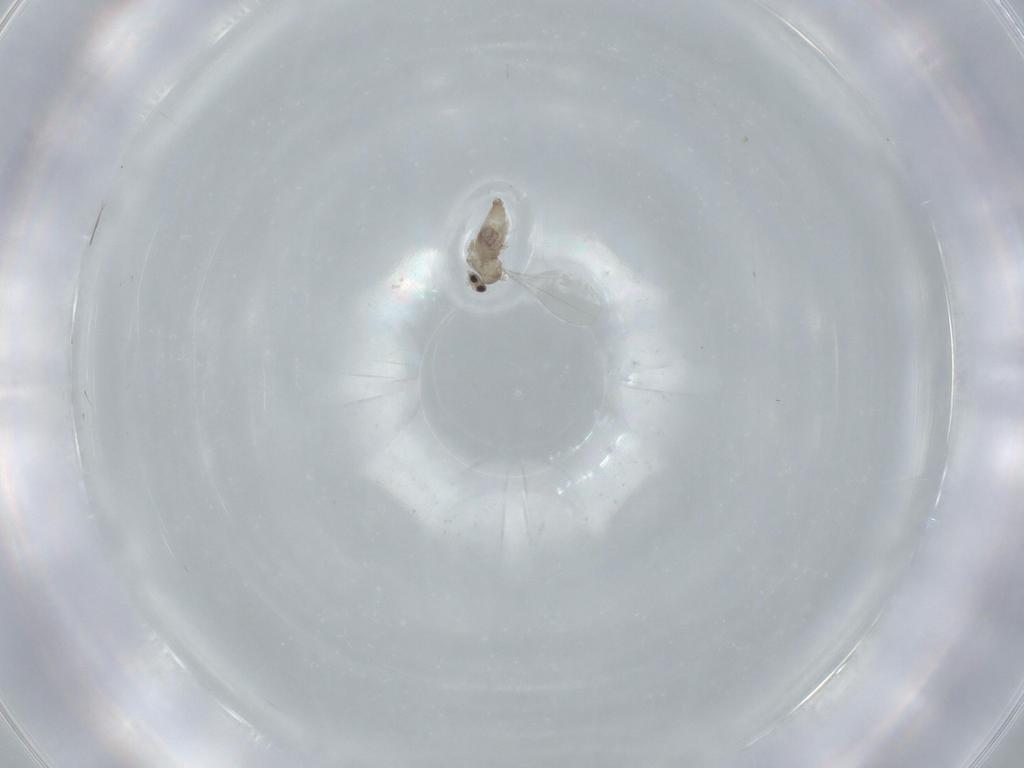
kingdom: Animalia
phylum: Arthropoda
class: Insecta
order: Diptera
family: Cecidomyiidae
